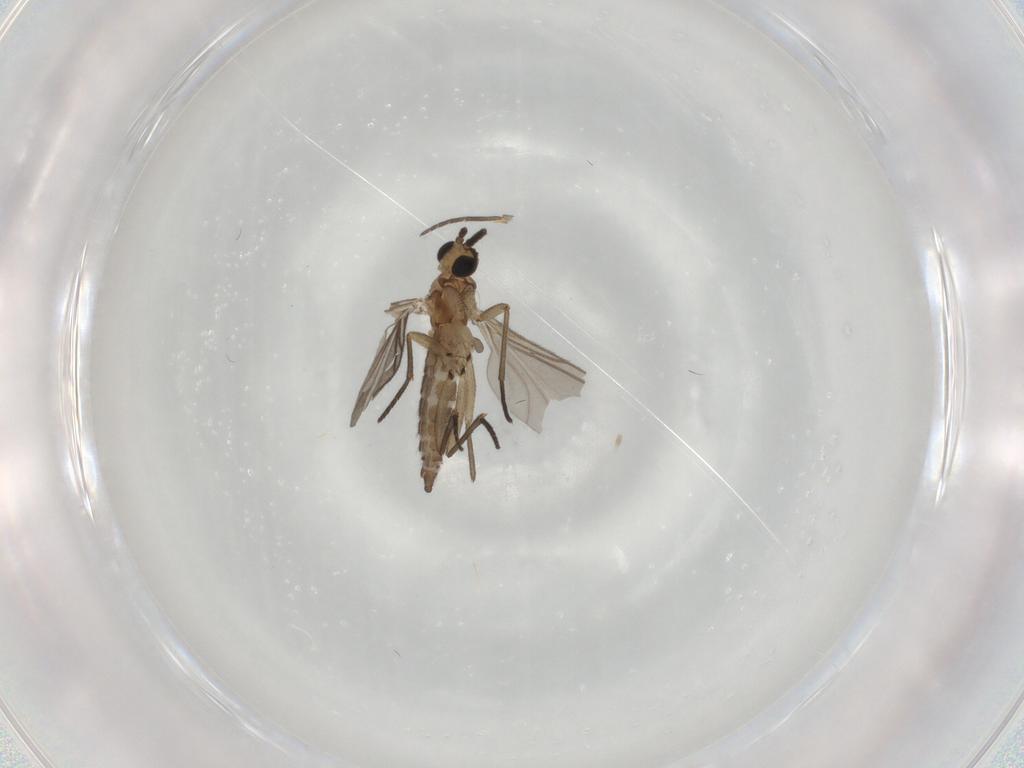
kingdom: Animalia
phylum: Arthropoda
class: Insecta
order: Diptera
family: Sciaridae
